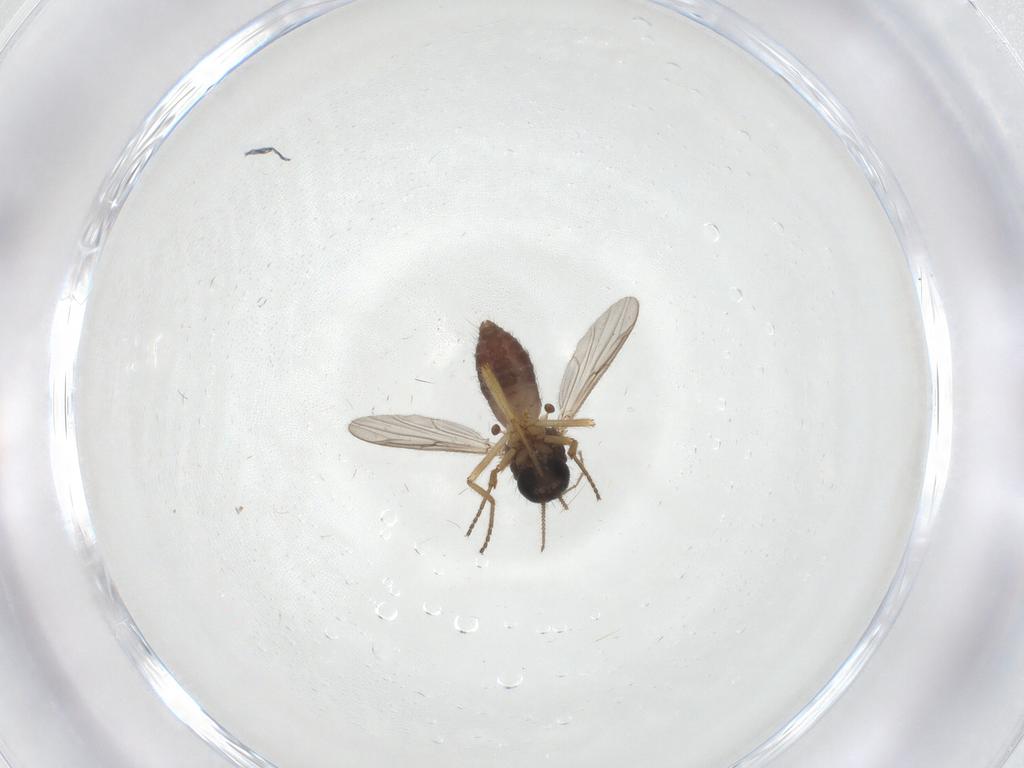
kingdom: Animalia
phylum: Arthropoda
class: Insecta
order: Diptera
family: Ceratopogonidae
